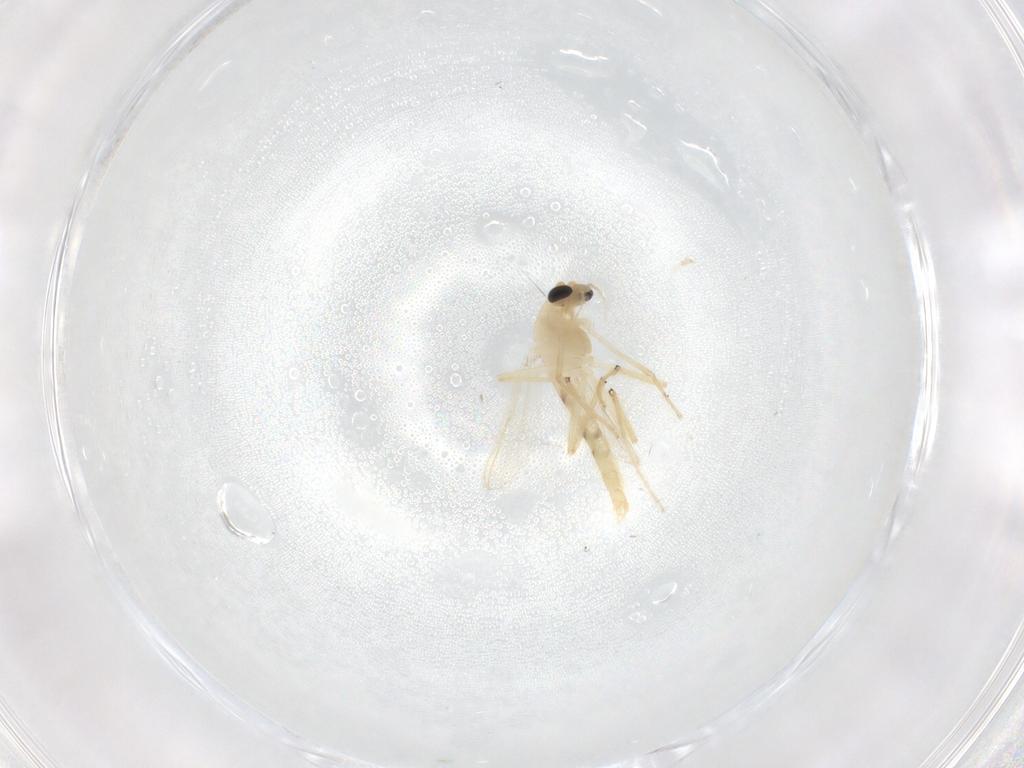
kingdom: Animalia
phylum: Arthropoda
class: Insecta
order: Diptera
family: Chironomidae
